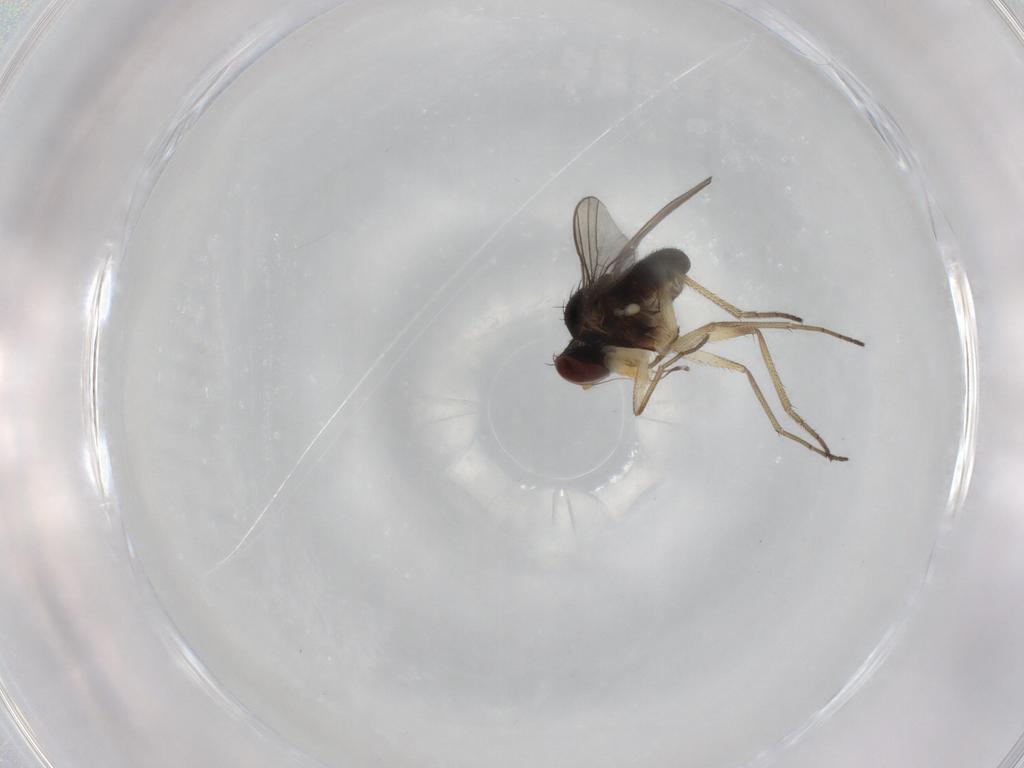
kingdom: Animalia
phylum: Arthropoda
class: Insecta
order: Diptera
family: Dolichopodidae
